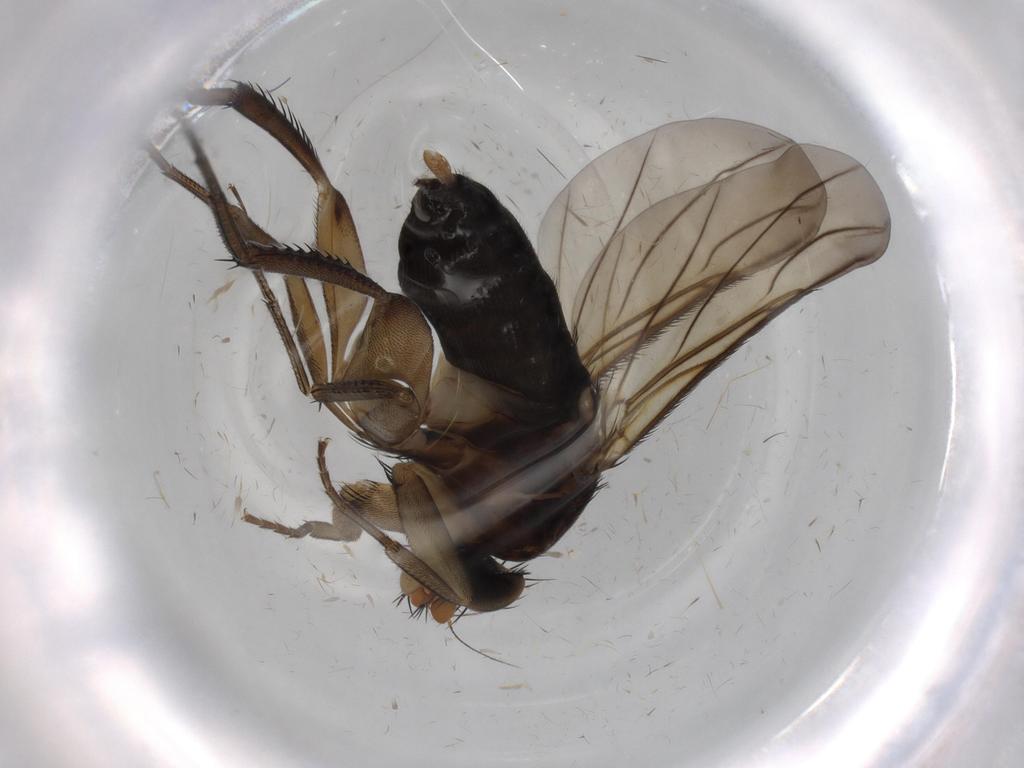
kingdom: Animalia
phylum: Arthropoda
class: Insecta
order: Diptera
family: Phoridae
